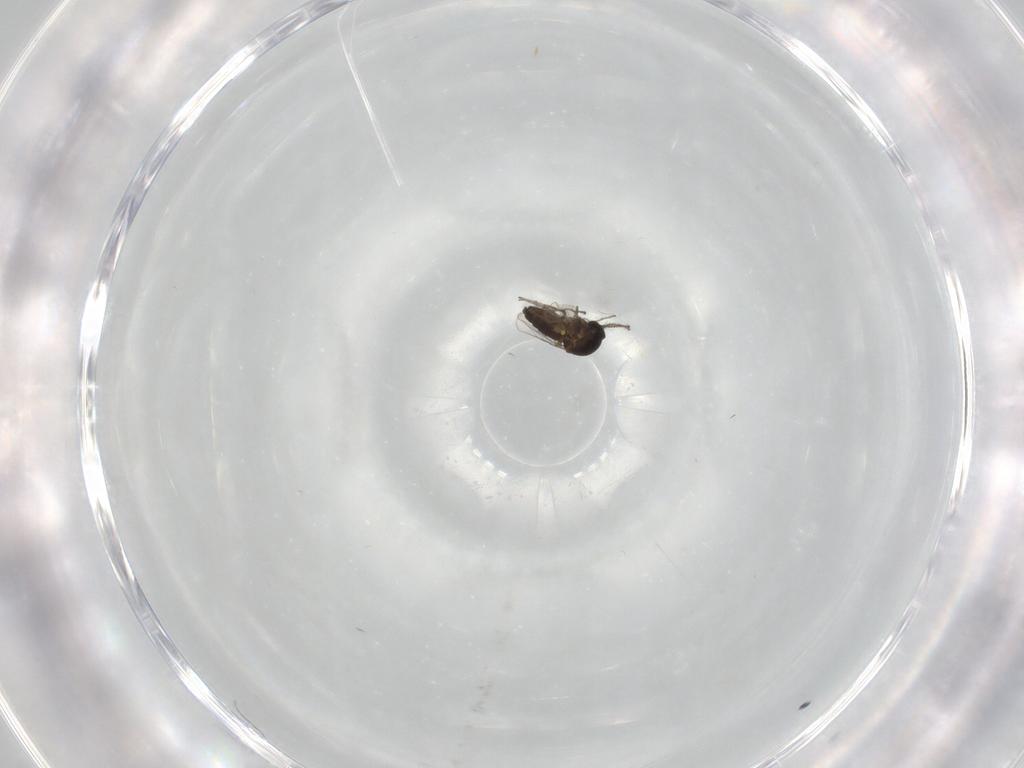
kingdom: Animalia
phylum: Arthropoda
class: Insecta
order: Diptera
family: Ceratopogonidae
